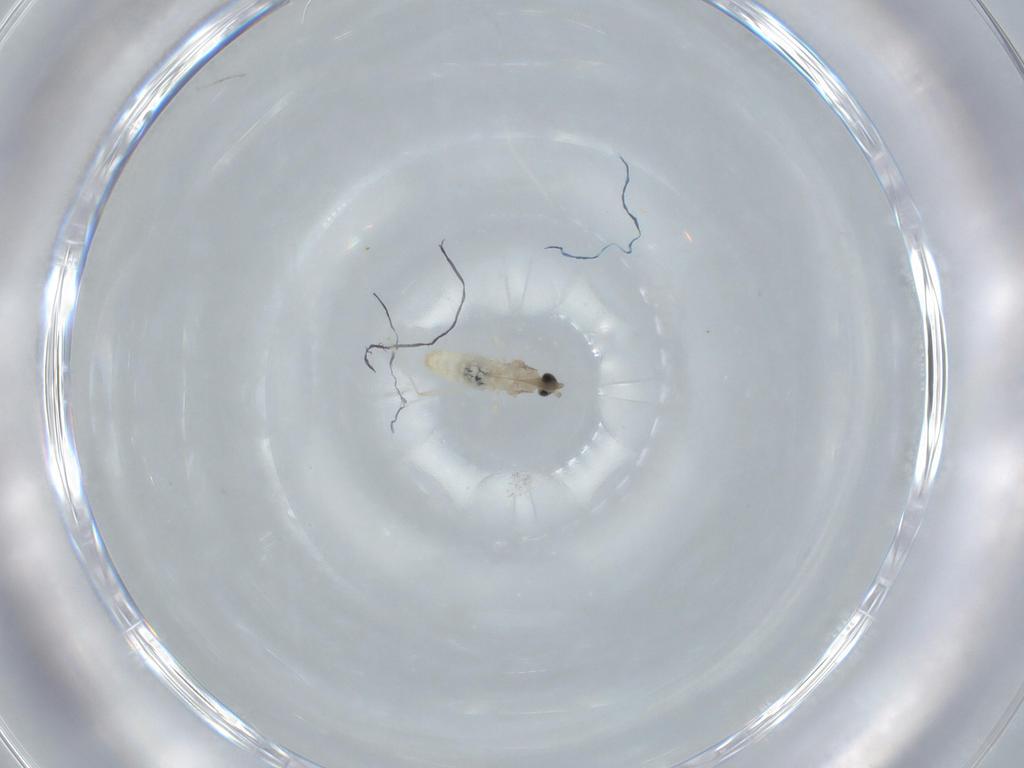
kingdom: Animalia
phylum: Arthropoda
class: Insecta
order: Diptera
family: Cecidomyiidae
